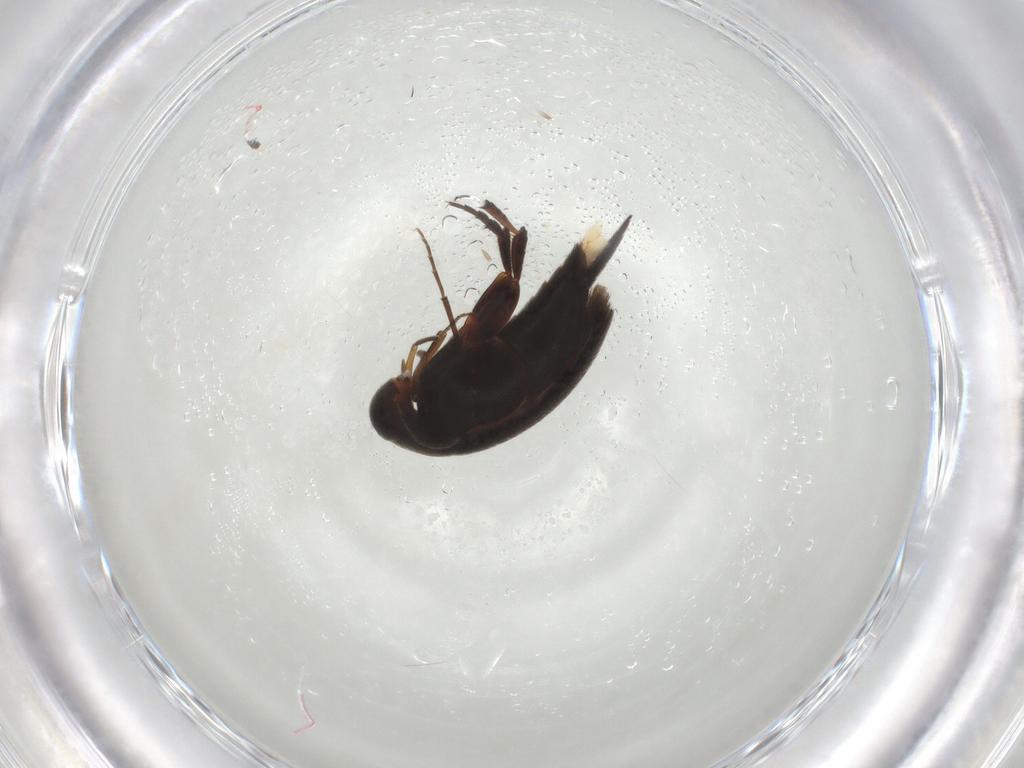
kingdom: Animalia
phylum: Arthropoda
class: Insecta
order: Coleoptera
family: Mordellidae
